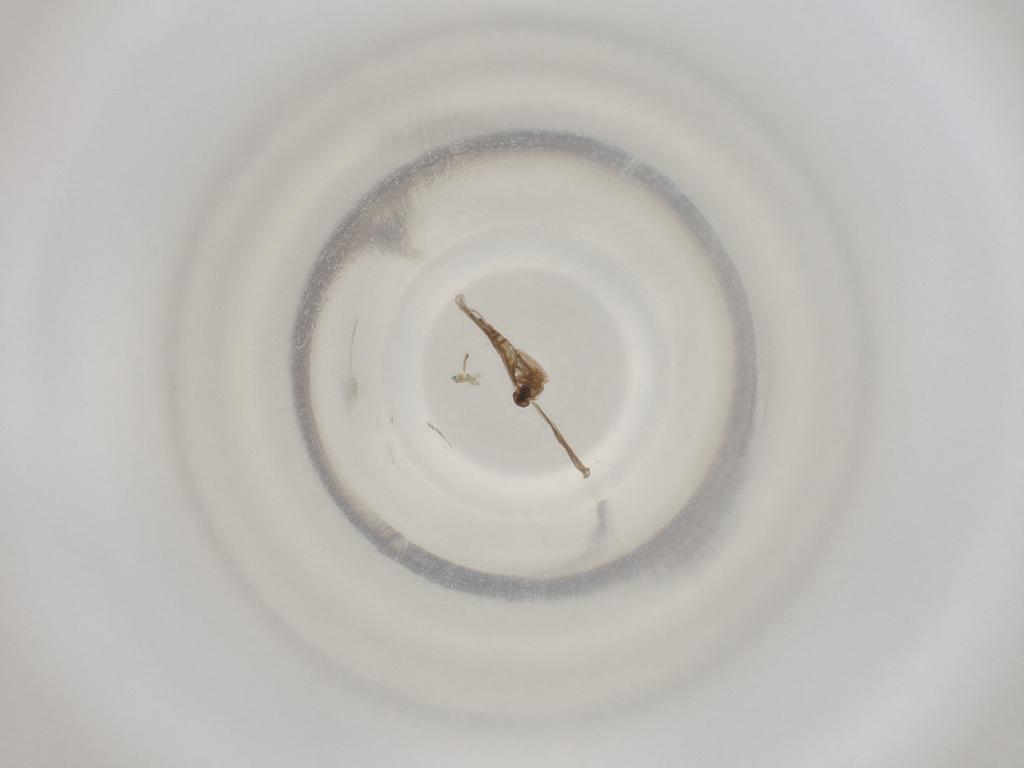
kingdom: Animalia
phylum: Arthropoda
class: Insecta
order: Diptera
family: Cecidomyiidae
